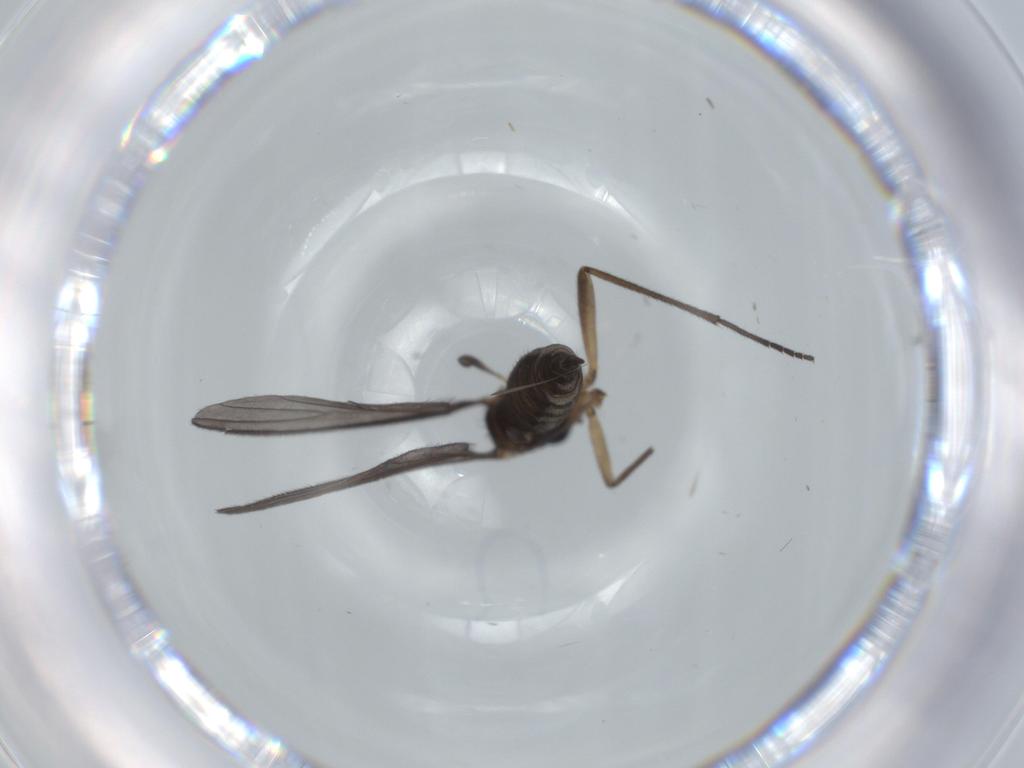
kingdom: Animalia
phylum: Arthropoda
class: Insecta
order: Diptera
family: Sciaridae
